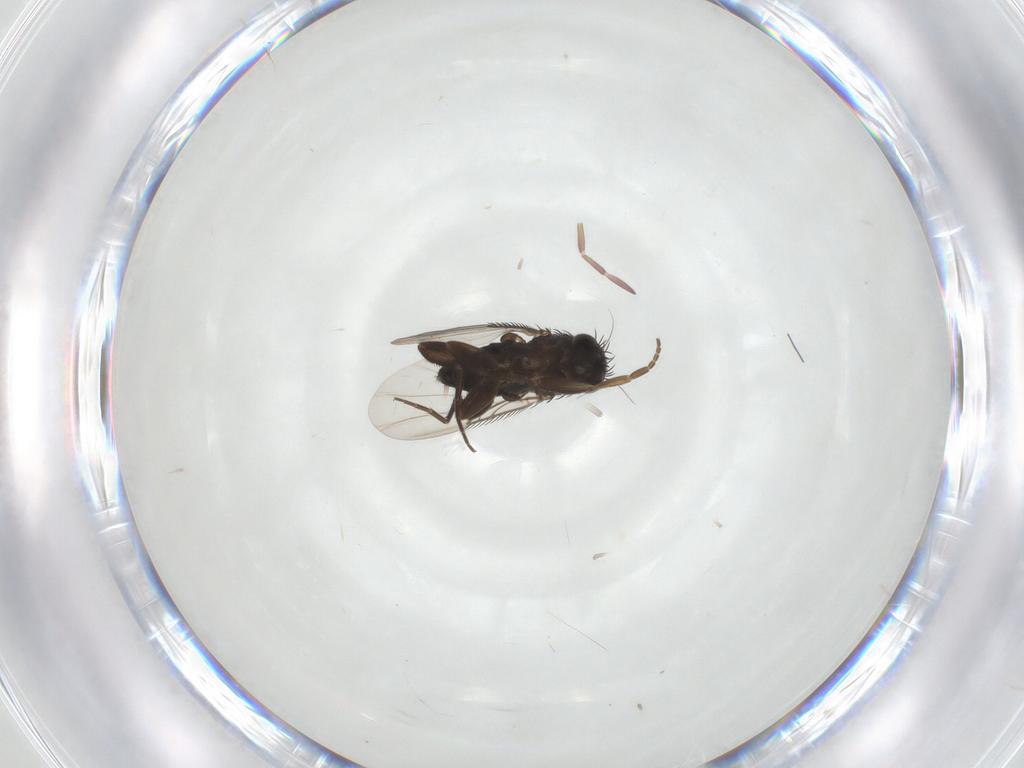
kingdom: Animalia
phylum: Arthropoda
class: Insecta
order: Diptera
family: Phoridae
